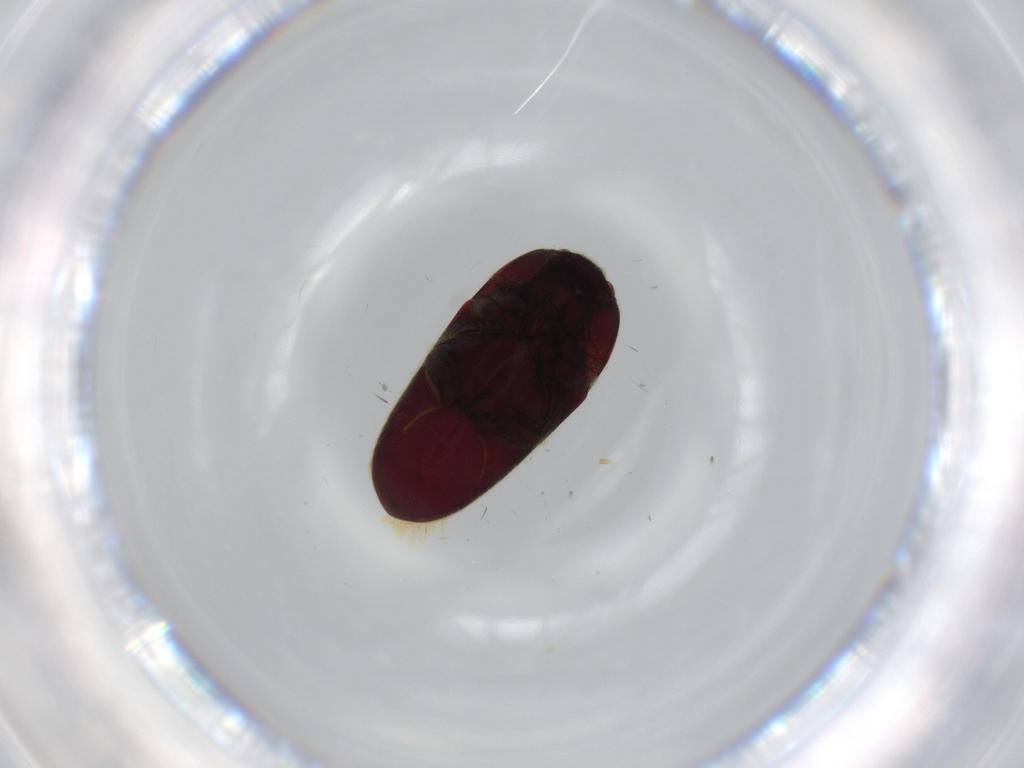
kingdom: Animalia
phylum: Arthropoda
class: Insecta
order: Coleoptera
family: Throscidae
